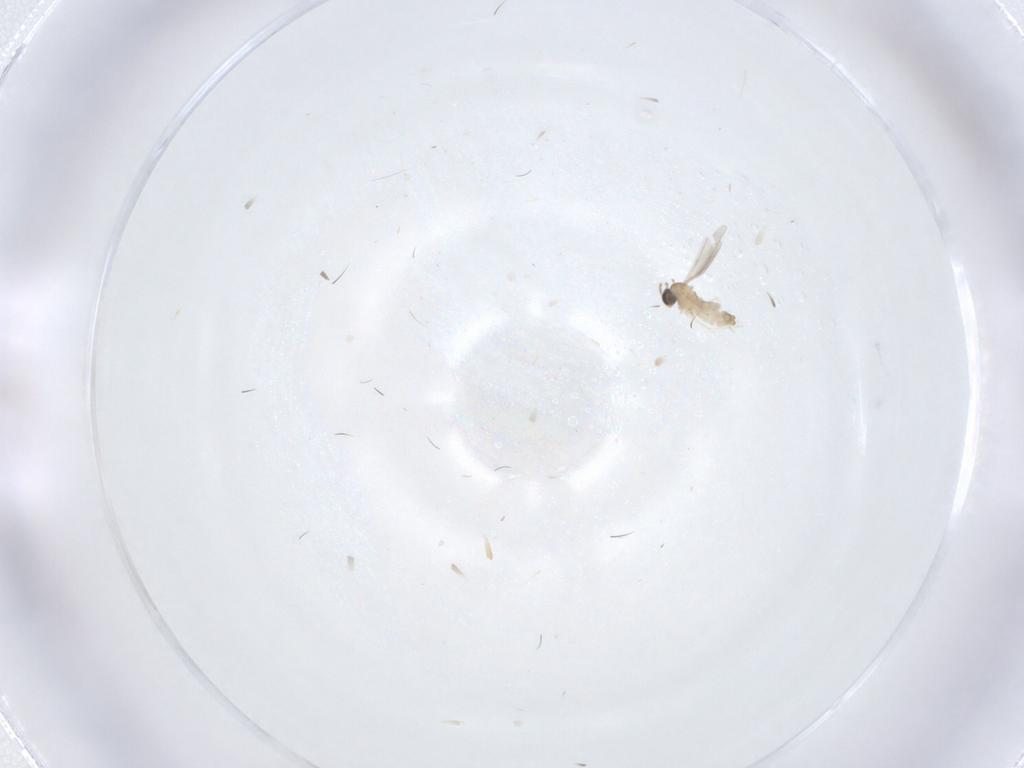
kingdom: Animalia
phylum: Arthropoda
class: Insecta
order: Diptera
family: Cecidomyiidae
